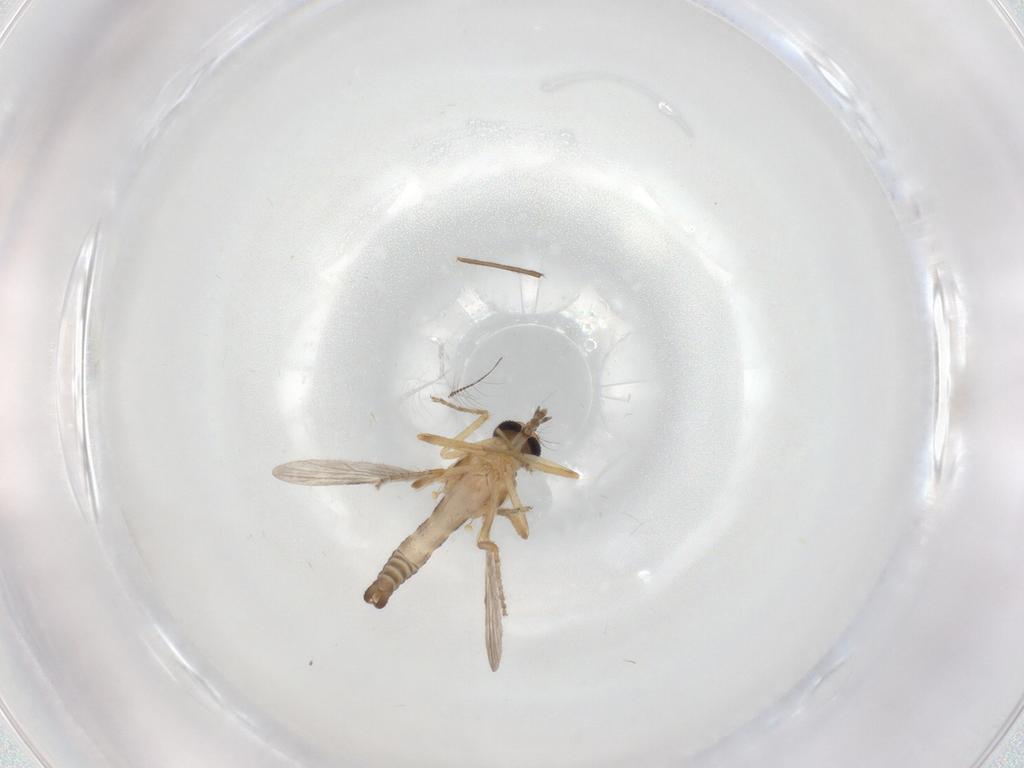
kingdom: Animalia
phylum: Arthropoda
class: Insecta
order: Diptera
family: Ceratopogonidae
